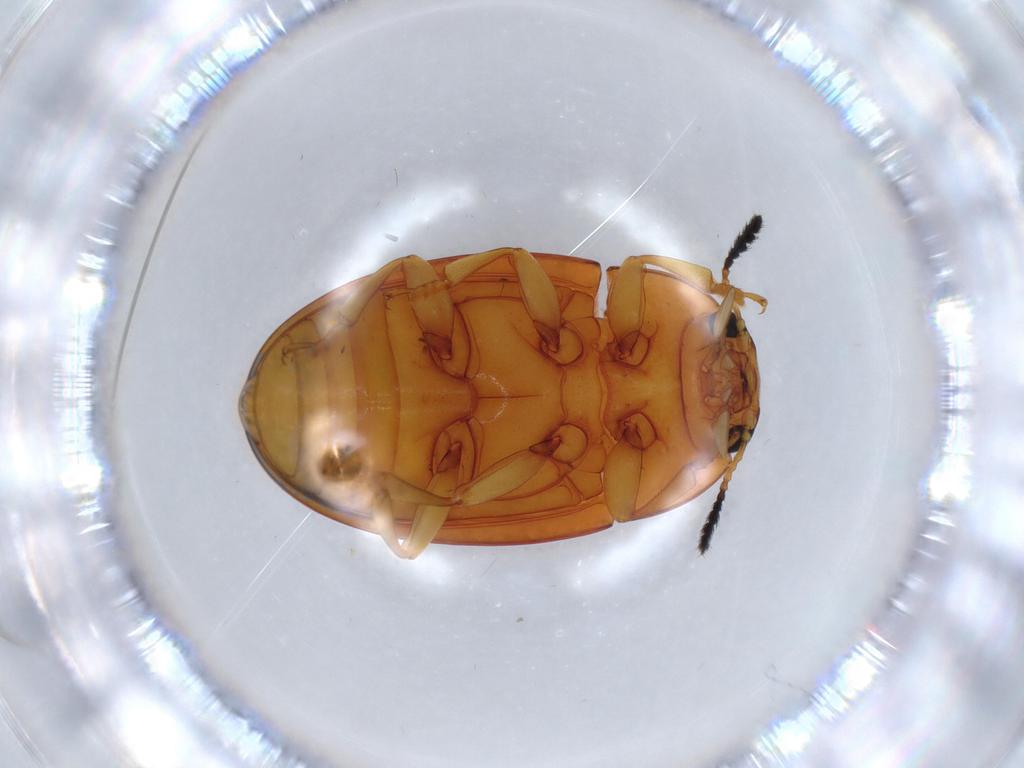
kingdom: Animalia
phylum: Arthropoda
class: Insecta
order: Coleoptera
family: Erotylidae
